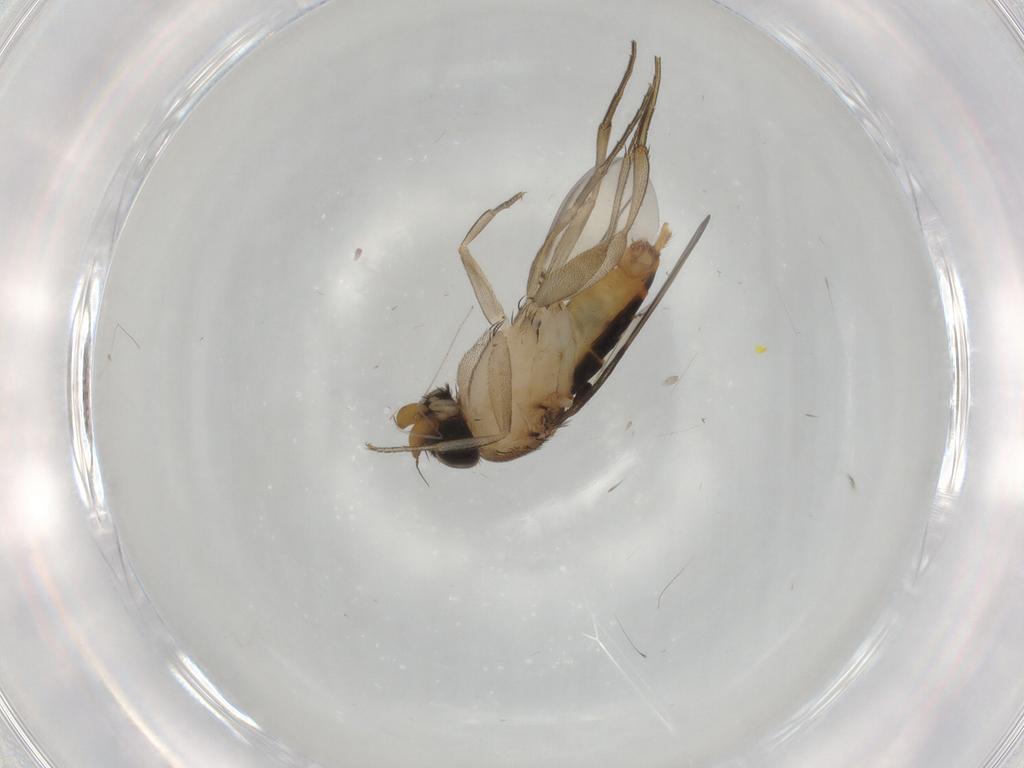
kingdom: Animalia
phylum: Arthropoda
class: Insecta
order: Diptera
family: Phoridae
